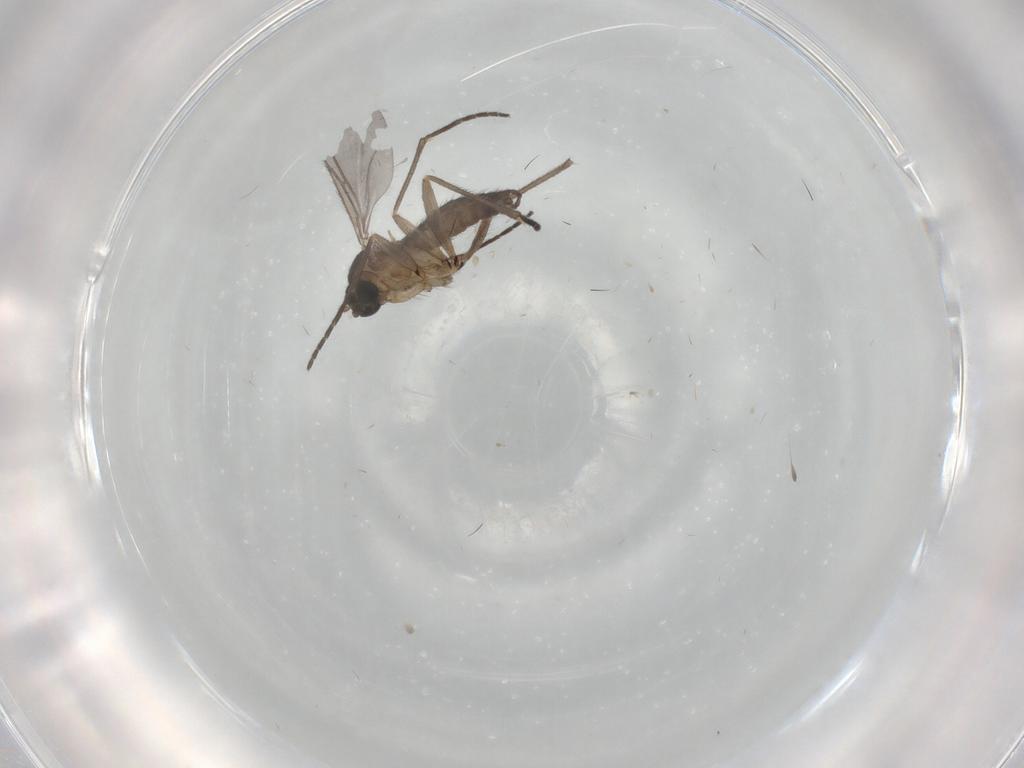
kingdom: Animalia
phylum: Arthropoda
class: Insecta
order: Diptera
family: Sciaridae
